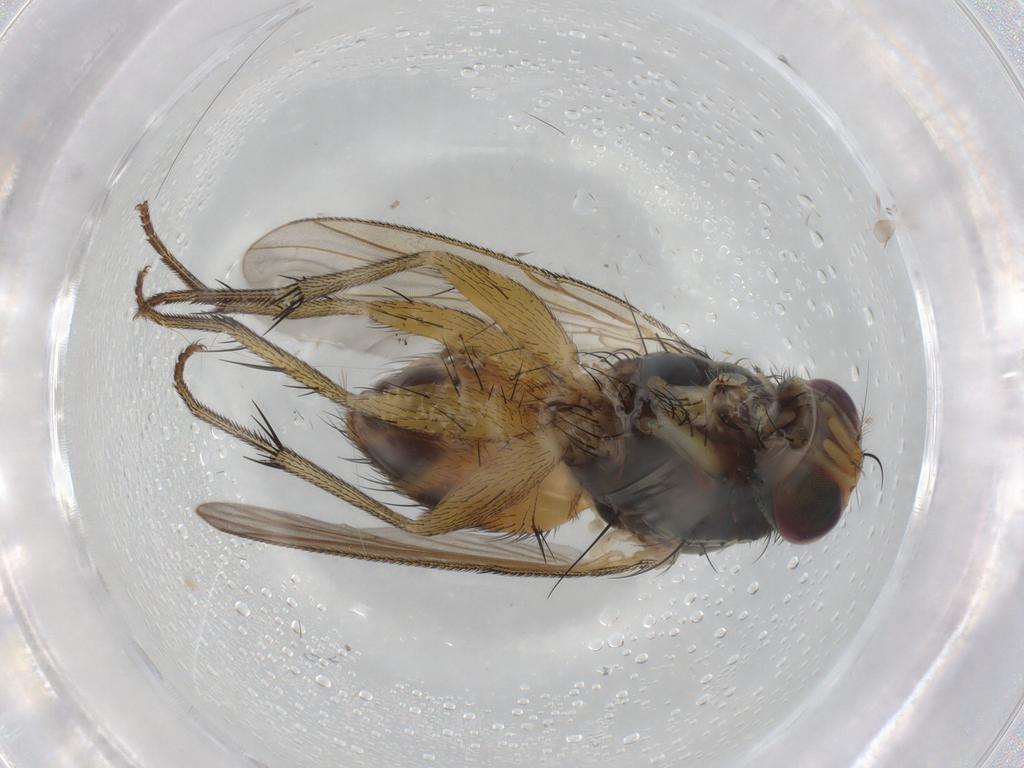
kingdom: Animalia
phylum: Arthropoda
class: Insecta
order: Diptera
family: Muscidae
